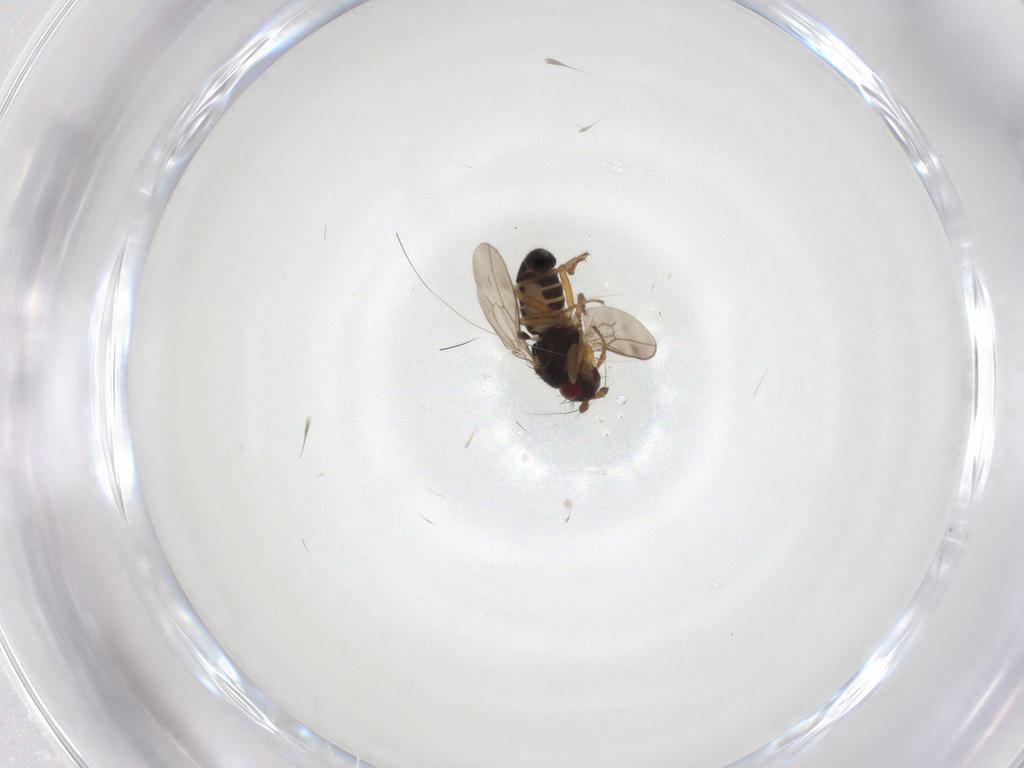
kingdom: Animalia
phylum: Arthropoda
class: Insecta
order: Diptera
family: Sphaeroceridae
